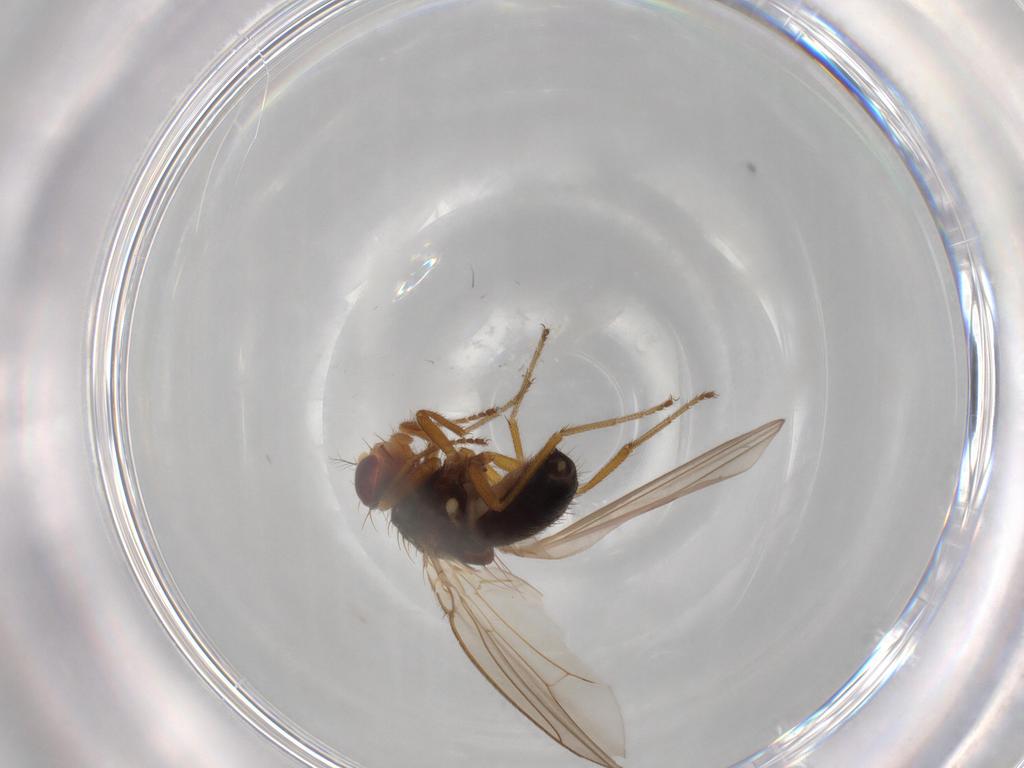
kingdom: Animalia
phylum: Arthropoda
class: Insecta
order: Diptera
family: Drosophilidae
